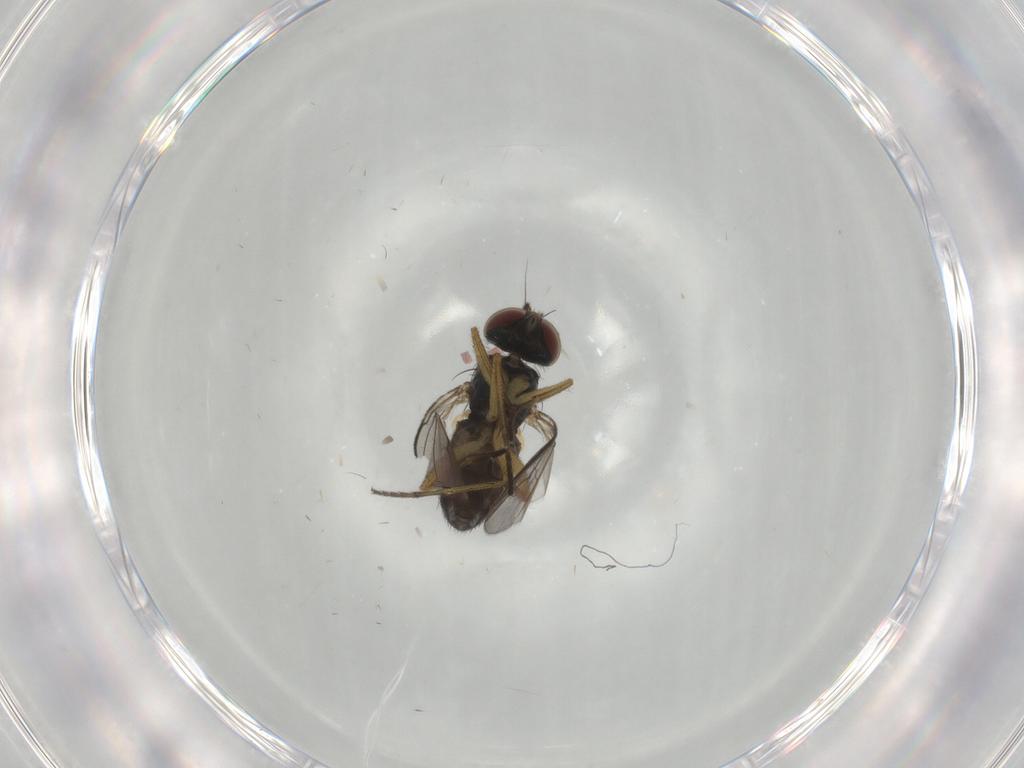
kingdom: Animalia
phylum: Arthropoda
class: Insecta
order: Diptera
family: Dolichopodidae
